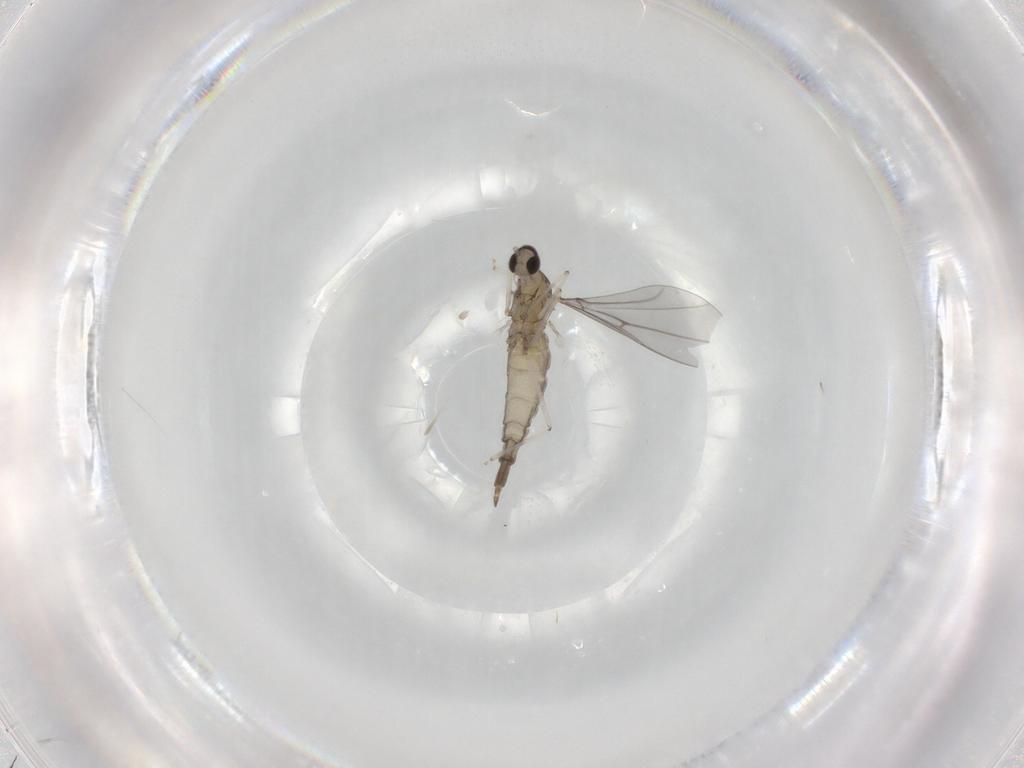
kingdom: Animalia
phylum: Arthropoda
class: Insecta
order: Diptera
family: Cecidomyiidae
